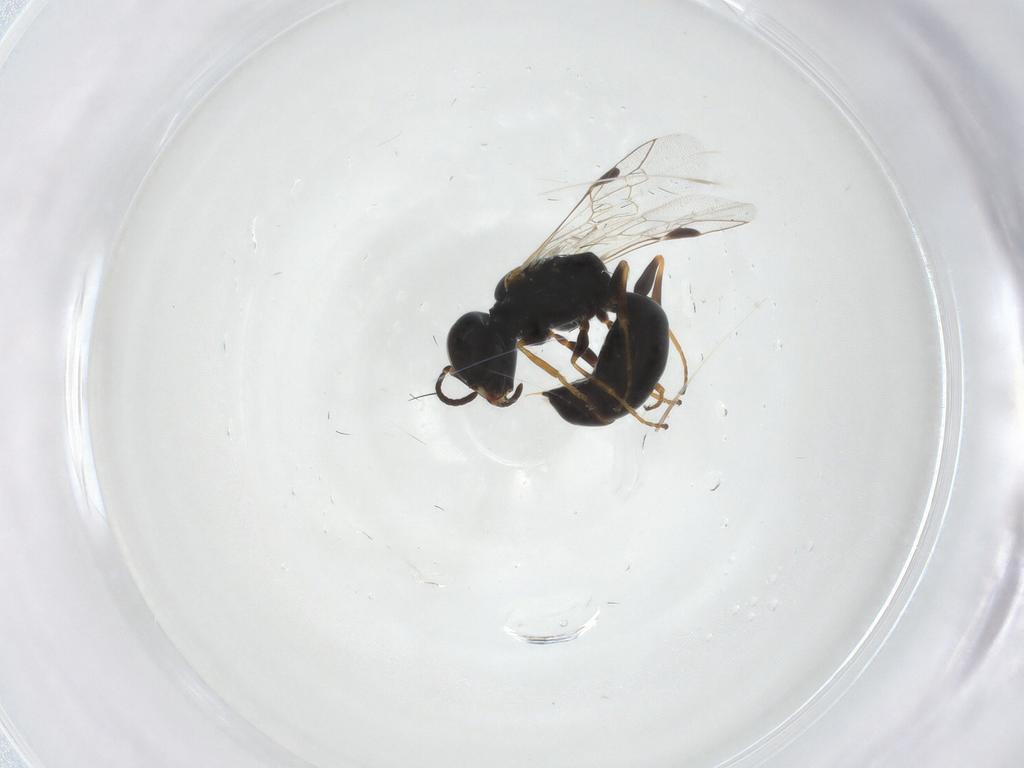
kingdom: Animalia
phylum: Arthropoda
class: Insecta
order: Hymenoptera
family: Crabronidae
